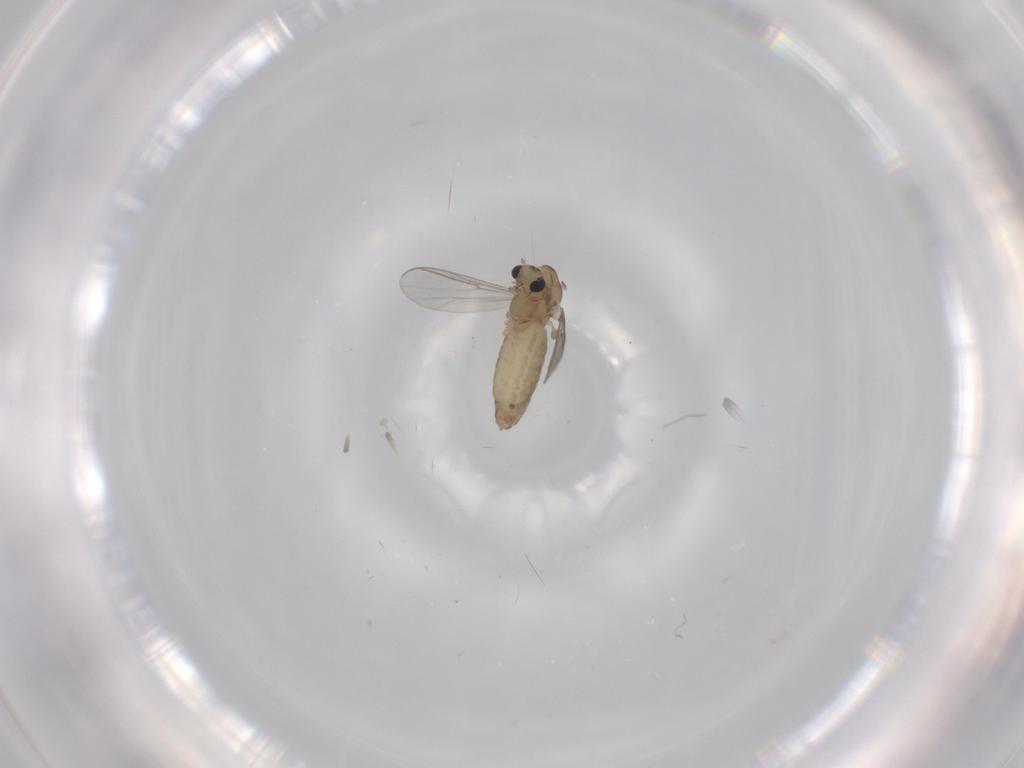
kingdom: Animalia
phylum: Arthropoda
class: Insecta
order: Diptera
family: Chironomidae
